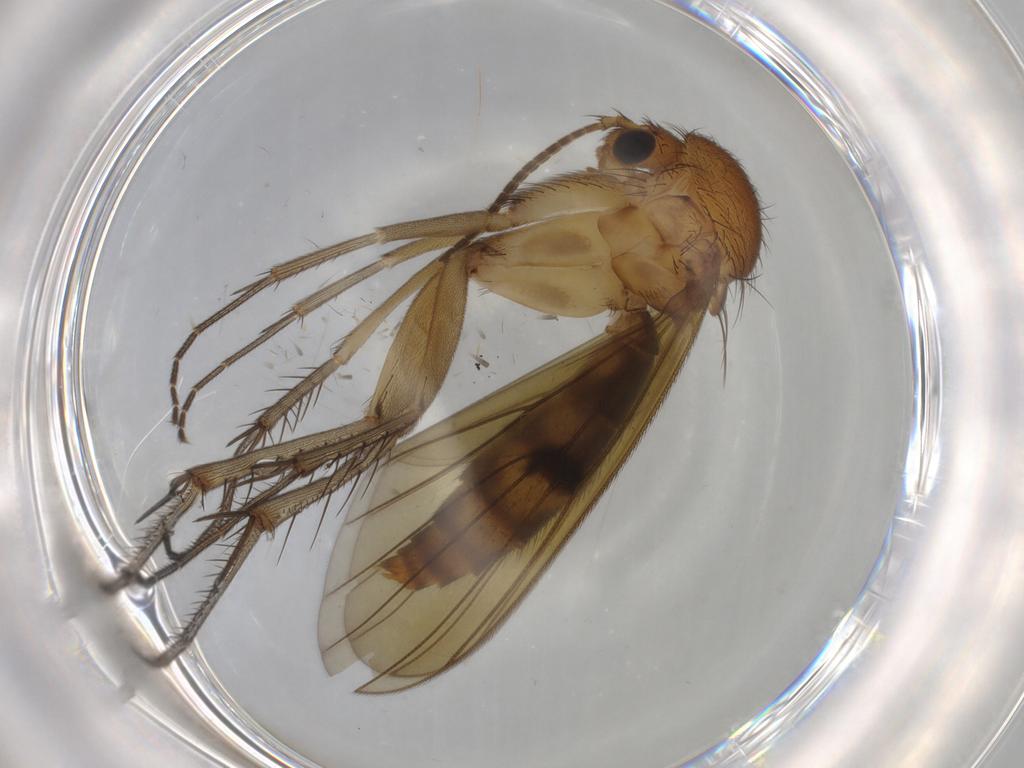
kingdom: Animalia
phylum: Arthropoda
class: Insecta
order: Diptera
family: Mycetophilidae
